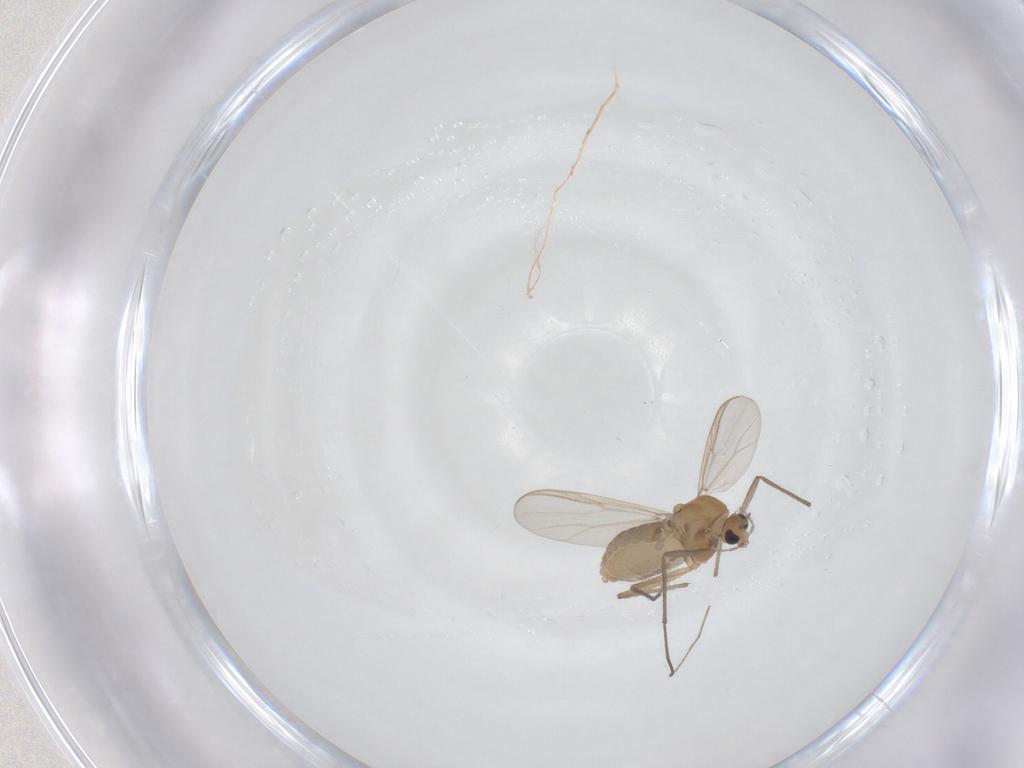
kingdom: Animalia
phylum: Arthropoda
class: Insecta
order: Diptera
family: Chironomidae
